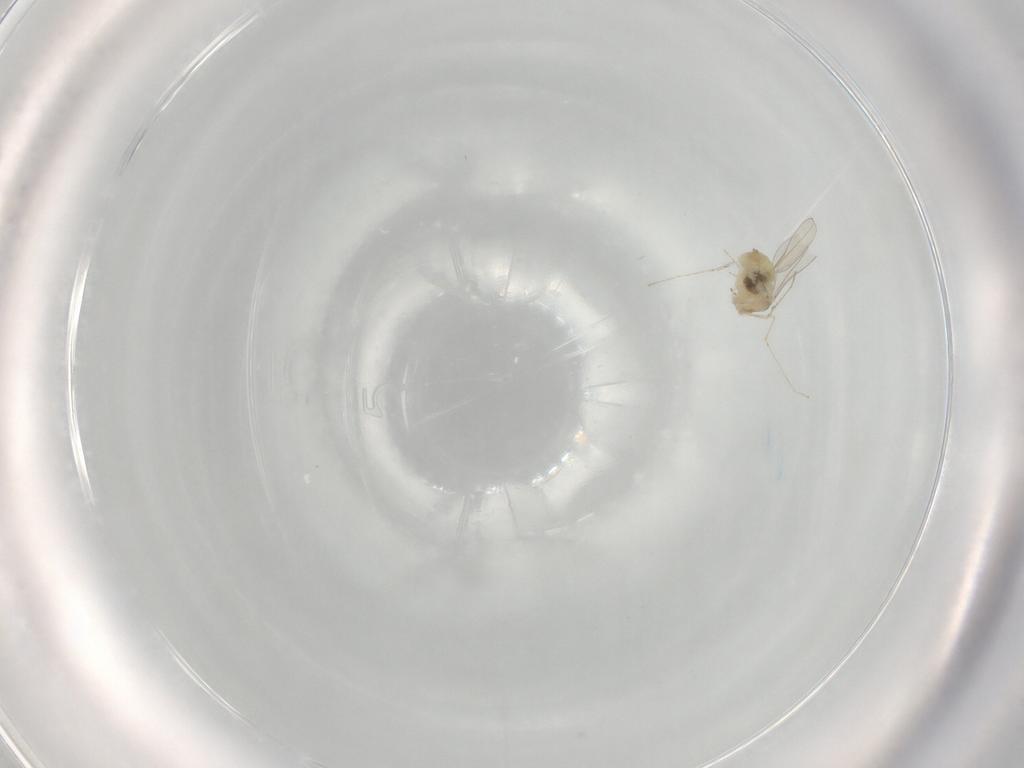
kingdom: Animalia
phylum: Arthropoda
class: Insecta
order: Diptera
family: Cecidomyiidae
